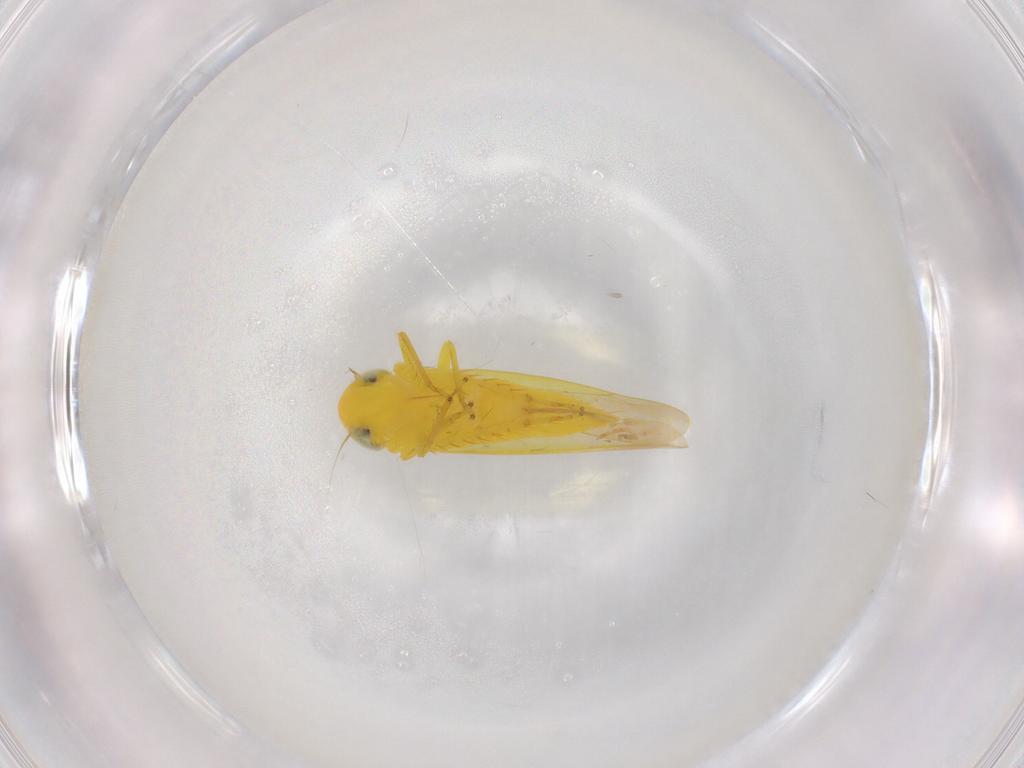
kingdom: Animalia
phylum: Arthropoda
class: Insecta
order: Hemiptera
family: Cicadellidae
